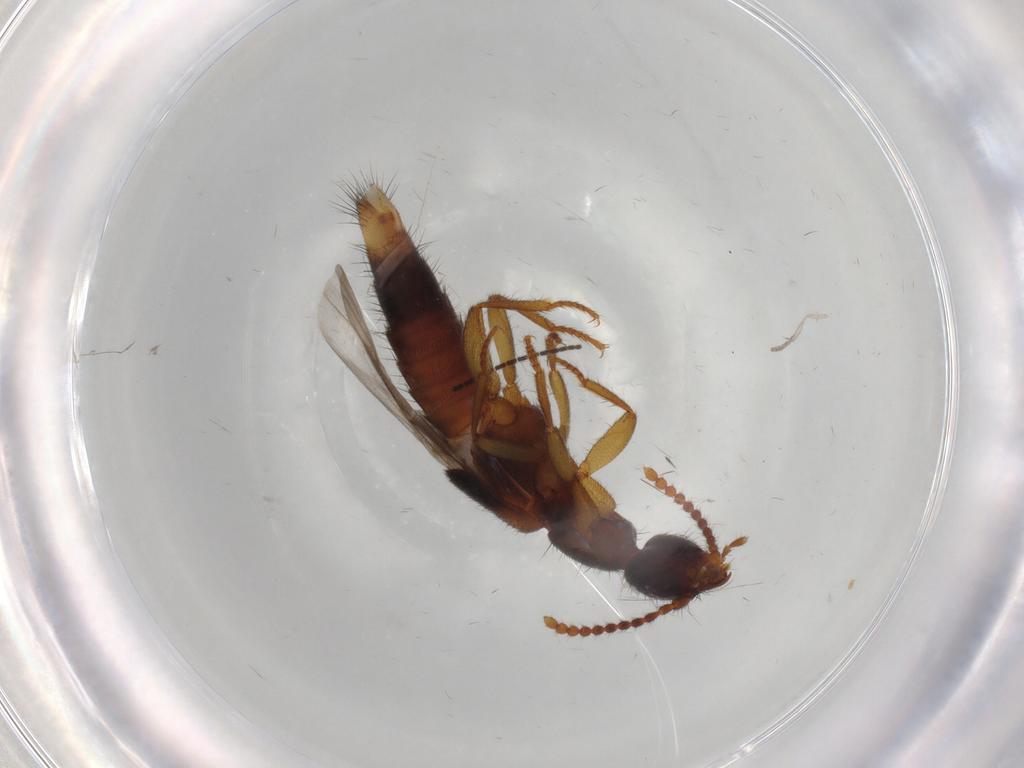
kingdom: Animalia
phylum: Arthropoda
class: Insecta
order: Coleoptera
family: Staphylinidae
